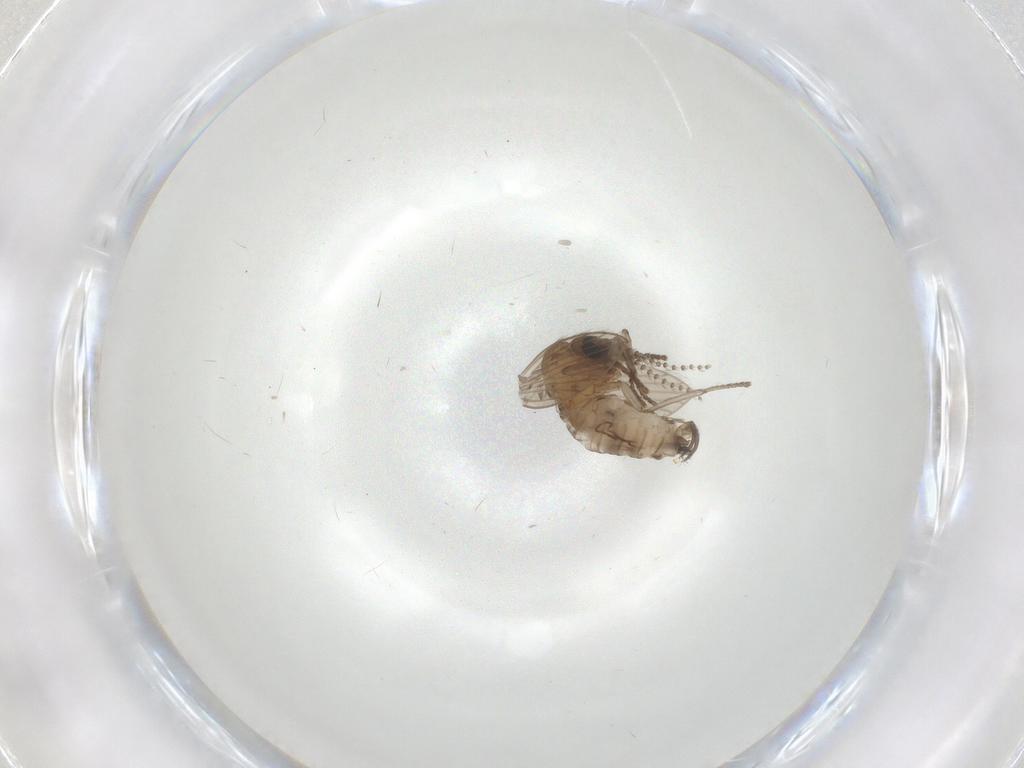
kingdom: Animalia
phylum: Arthropoda
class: Insecta
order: Diptera
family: Psychodidae
